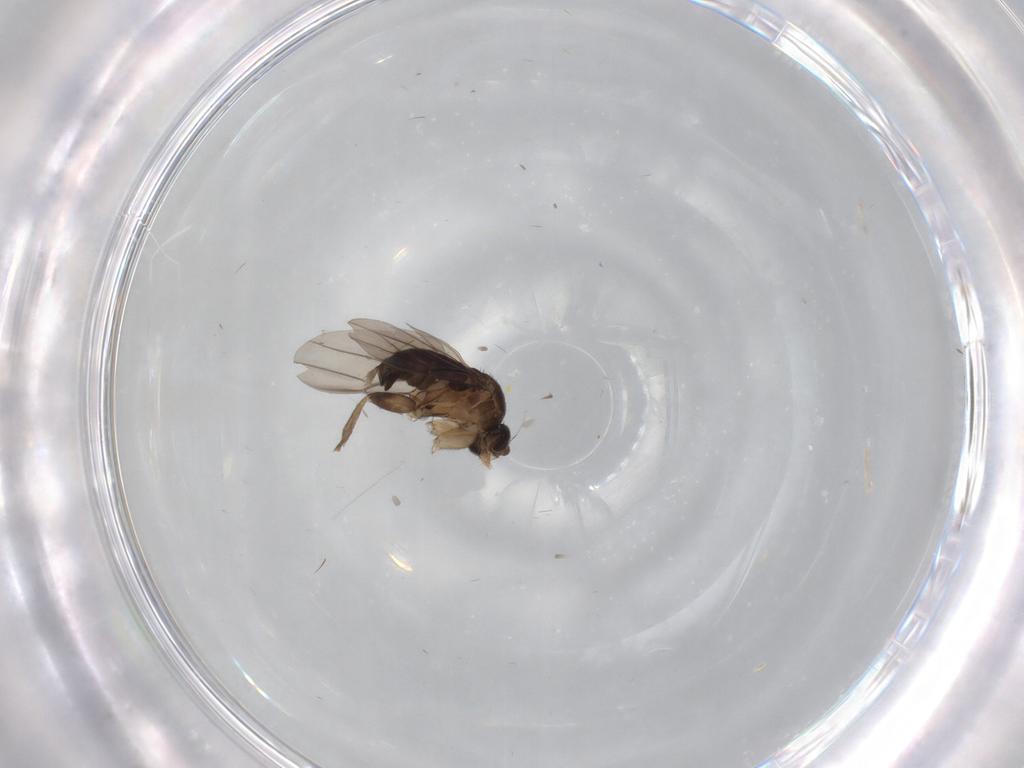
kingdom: Animalia
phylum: Arthropoda
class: Insecta
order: Diptera
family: Psychodidae
